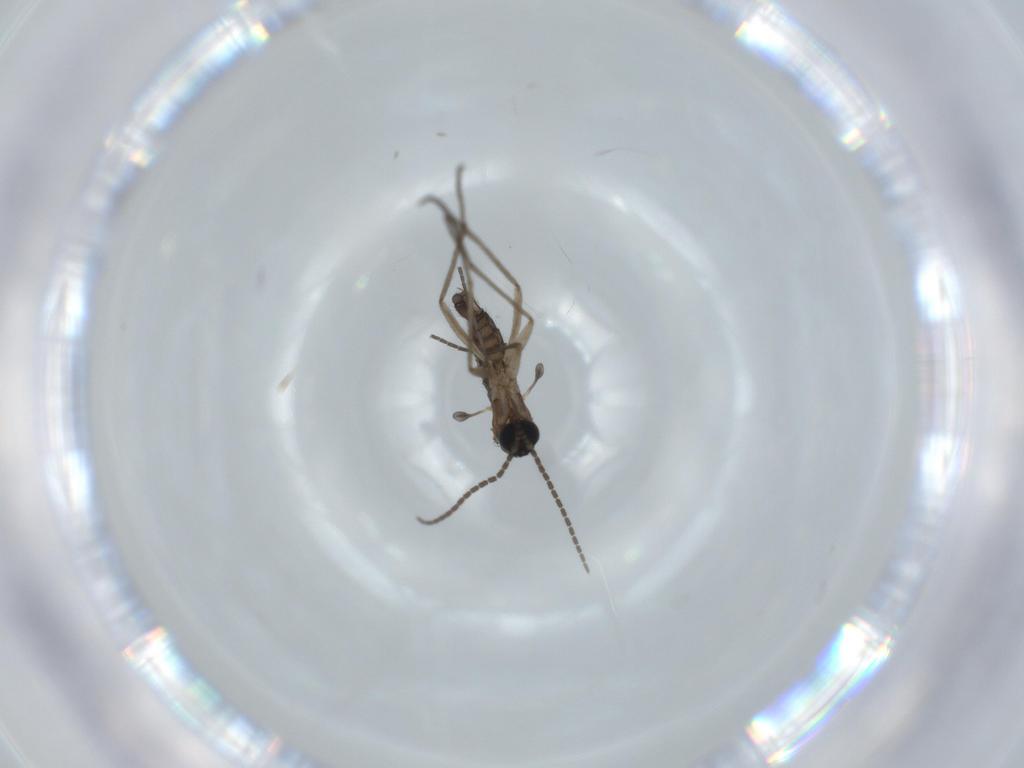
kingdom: Animalia
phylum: Arthropoda
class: Insecta
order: Diptera
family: Sciaridae
